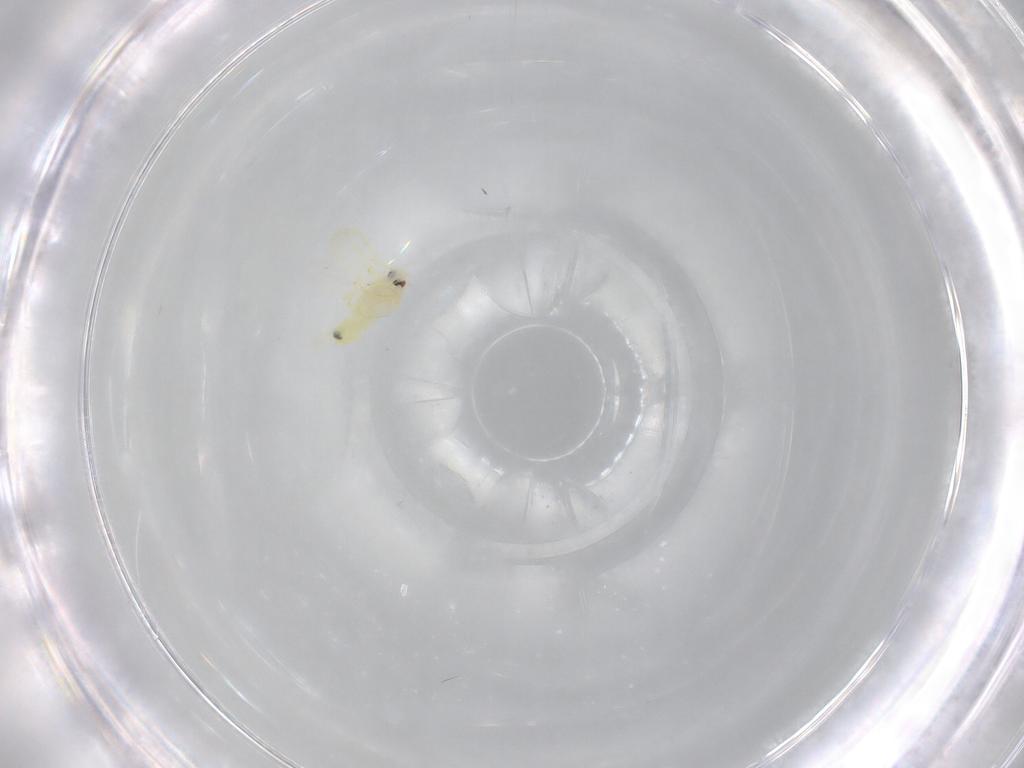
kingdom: Animalia
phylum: Arthropoda
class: Insecta
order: Hemiptera
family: Aleyrodidae
